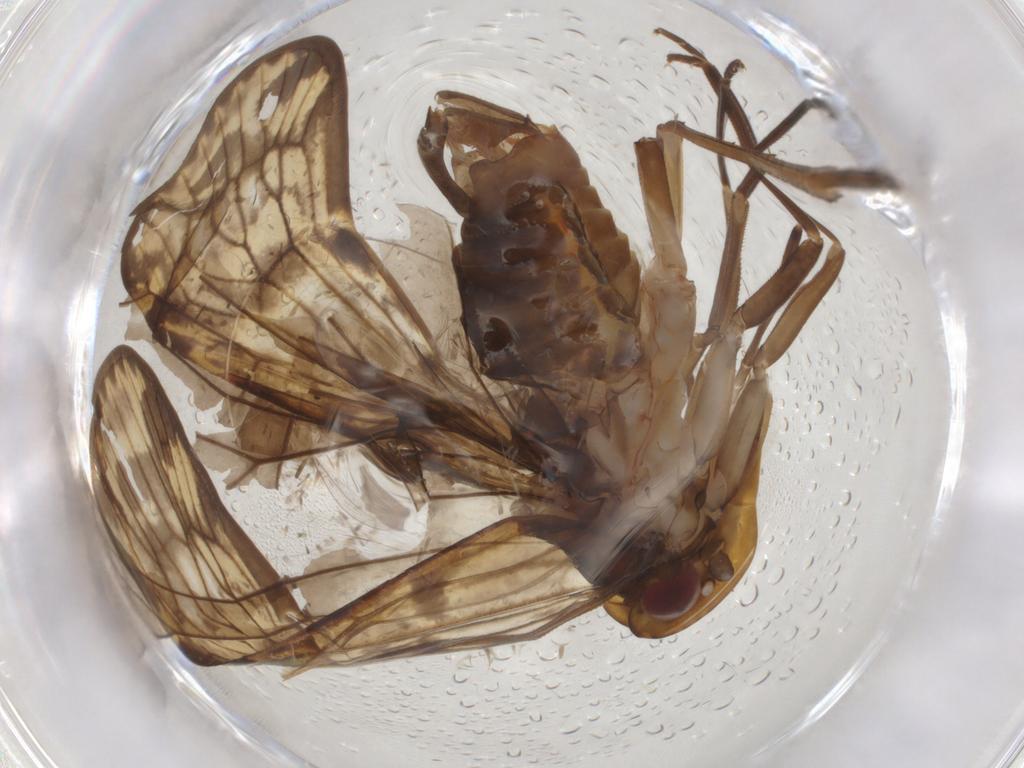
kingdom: Animalia
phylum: Arthropoda
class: Insecta
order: Lepidoptera
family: Erebidae
